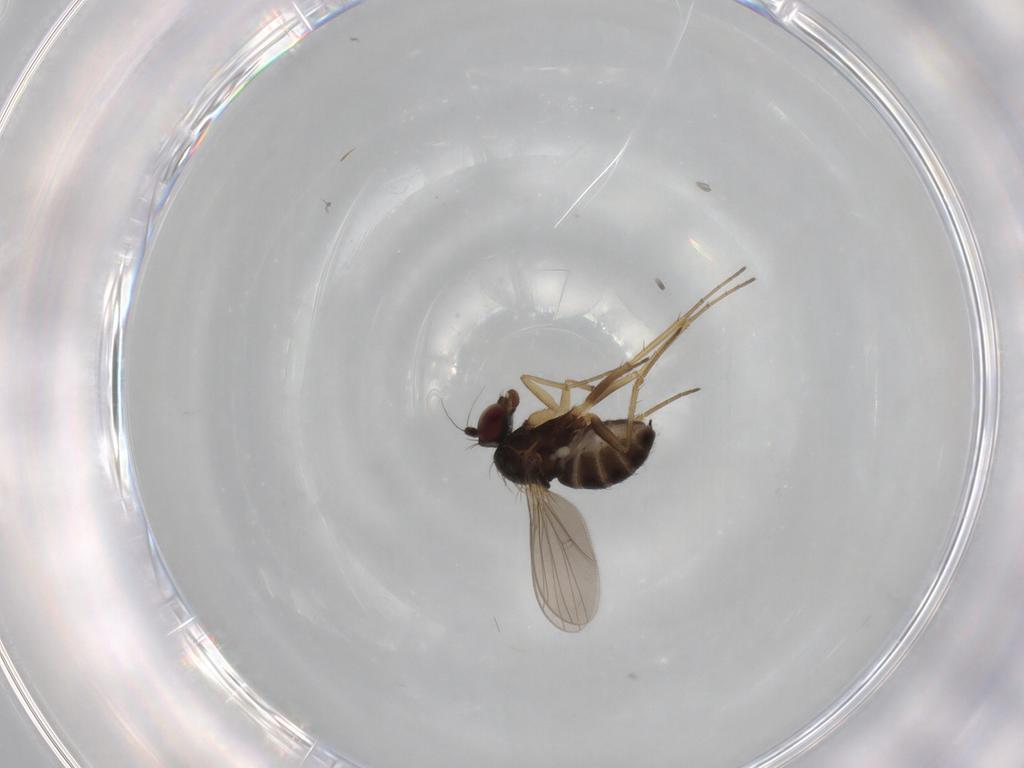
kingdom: Animalia
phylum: Arthropoda
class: Insecta
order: Diptera
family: Dolichopodidae
